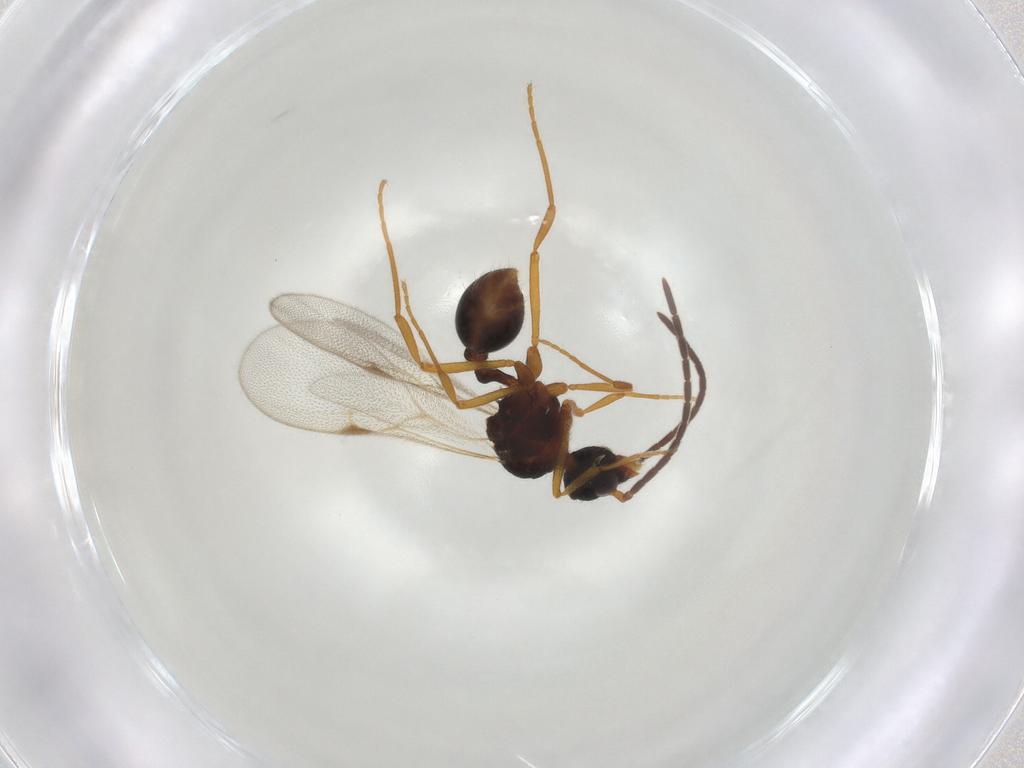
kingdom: Animalia
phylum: Arthropoda
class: Insecta
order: Hymenoptera
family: Formicidae
